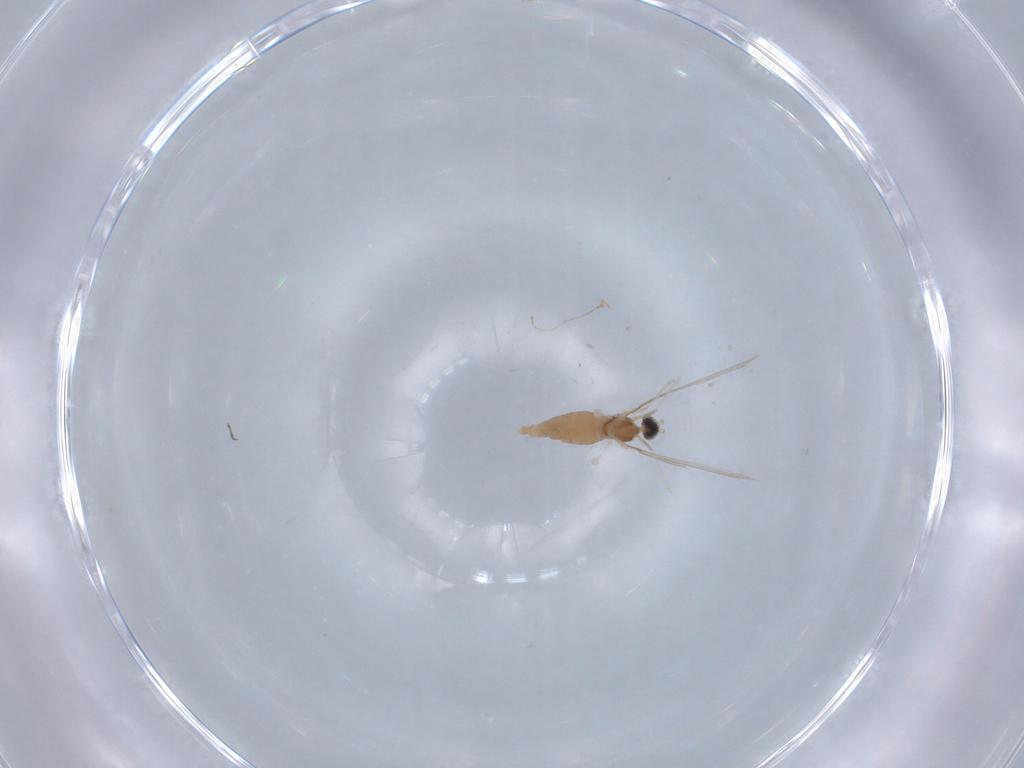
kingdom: Animalia
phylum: Arthropoda
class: Insecta
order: Diptera
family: Cecidomyiidae
